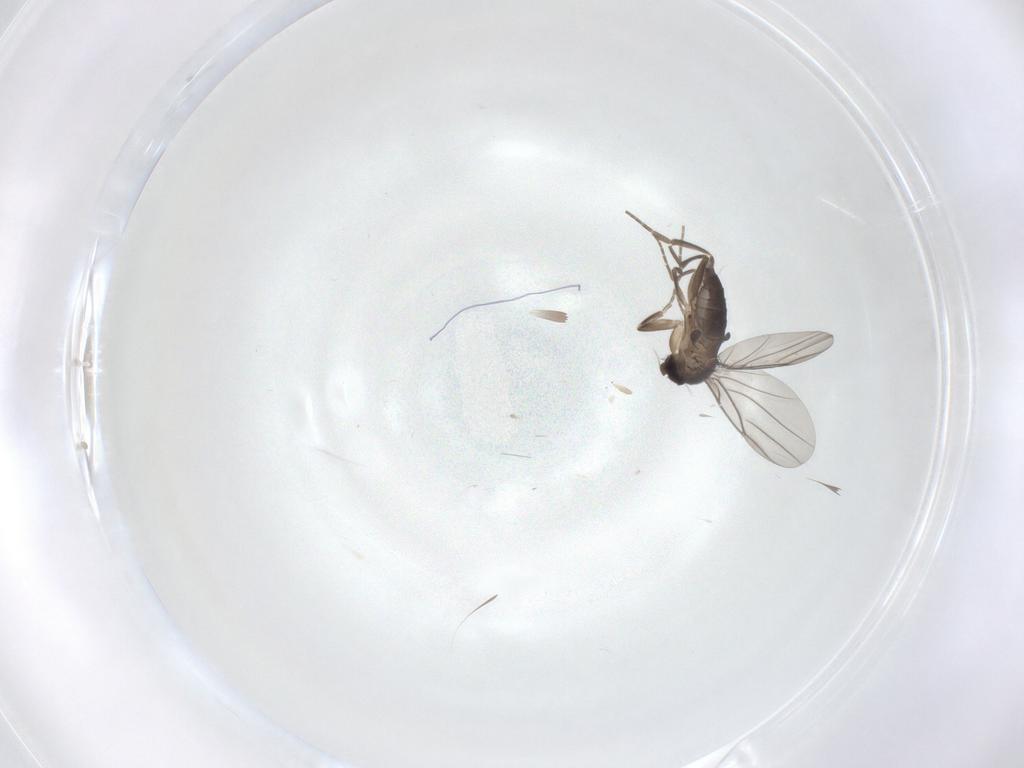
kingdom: Animalia
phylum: Arthropoda
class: Insecta
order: Diptera
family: Phoridae
